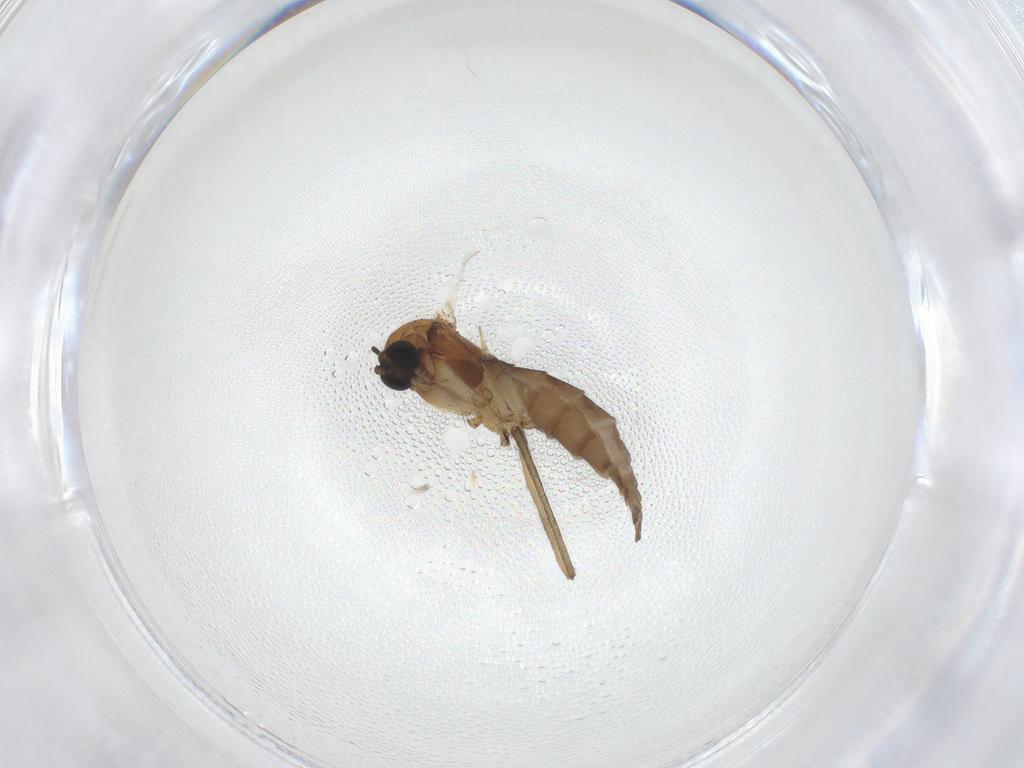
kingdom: Animalia
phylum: Arthropoda
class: Insecta
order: Diptera
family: Sciaridae
